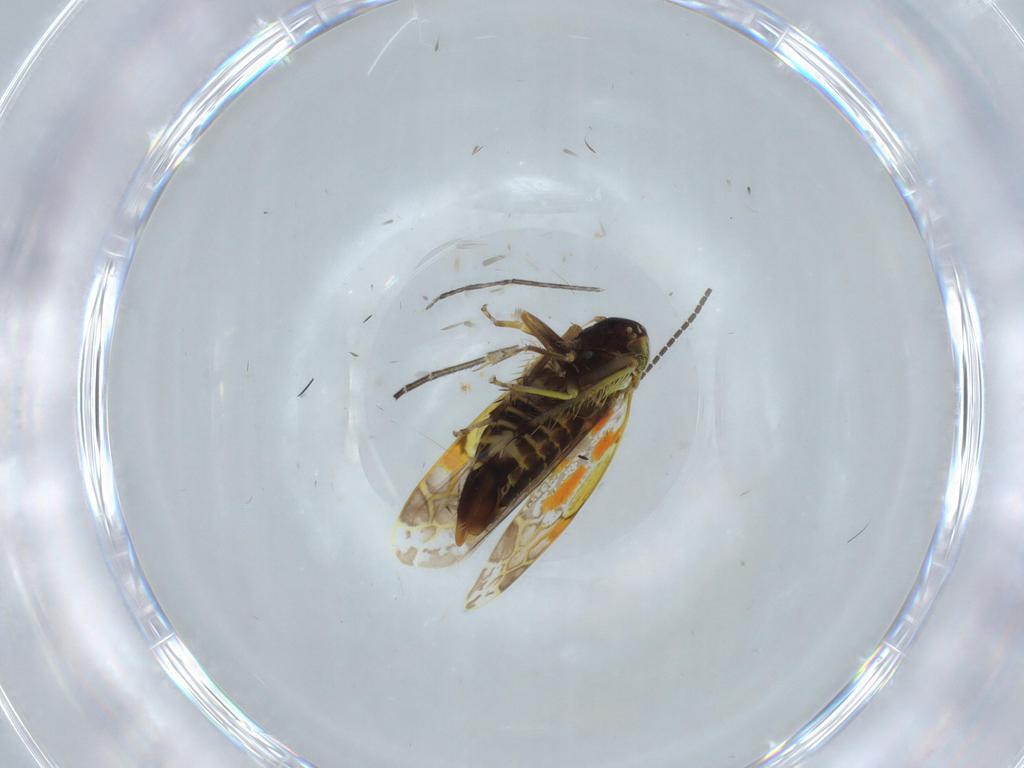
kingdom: Animalia
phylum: Arthropoda
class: Insecta
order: Hemiptera
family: Cicadellidae
